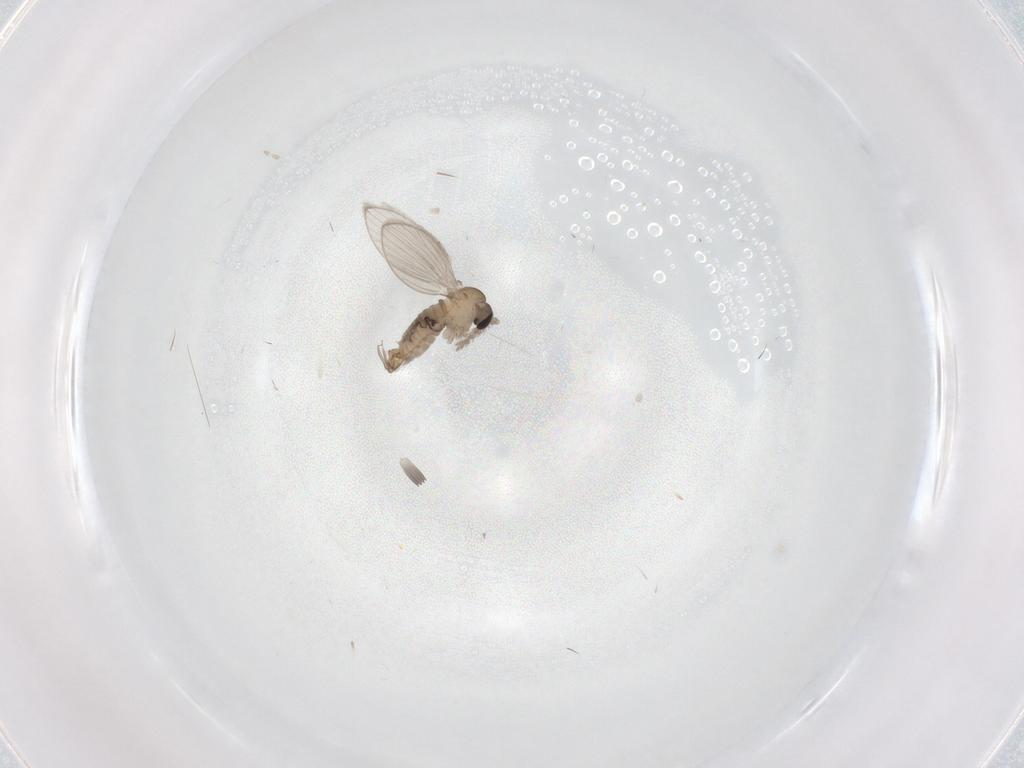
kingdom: Animalia
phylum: Arthropoda
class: Insecta
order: Diptera
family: Psychodidae
